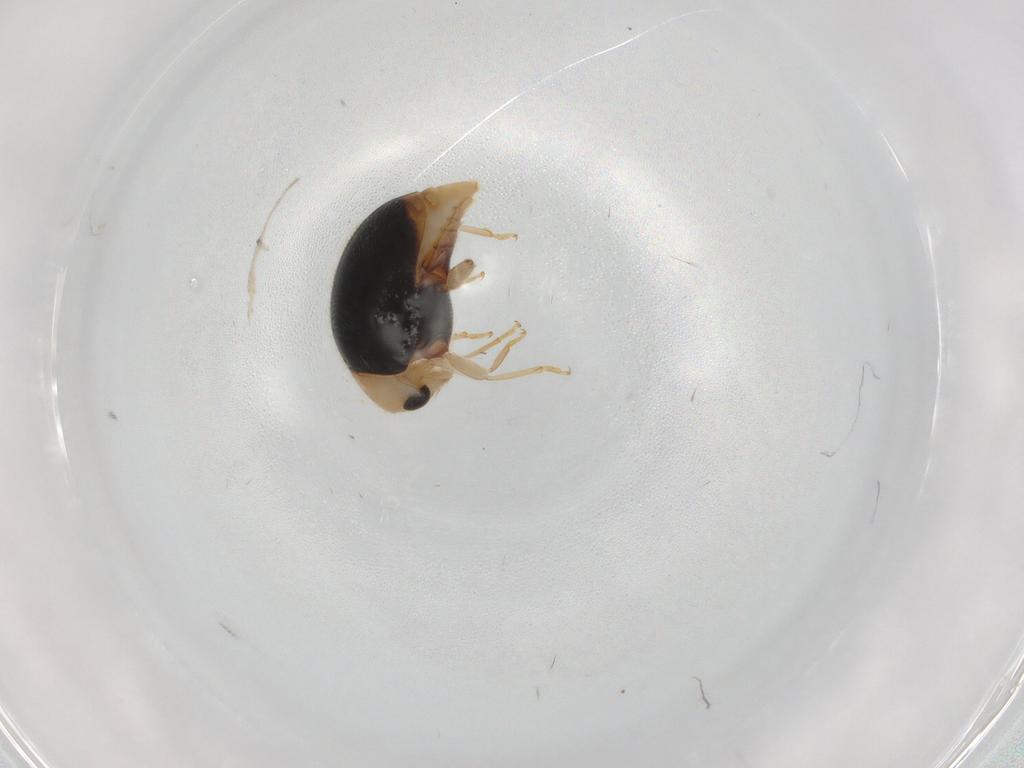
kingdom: Animalia
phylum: Arthropoda
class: Insecta
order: Coleoptera
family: Coccinellidae
